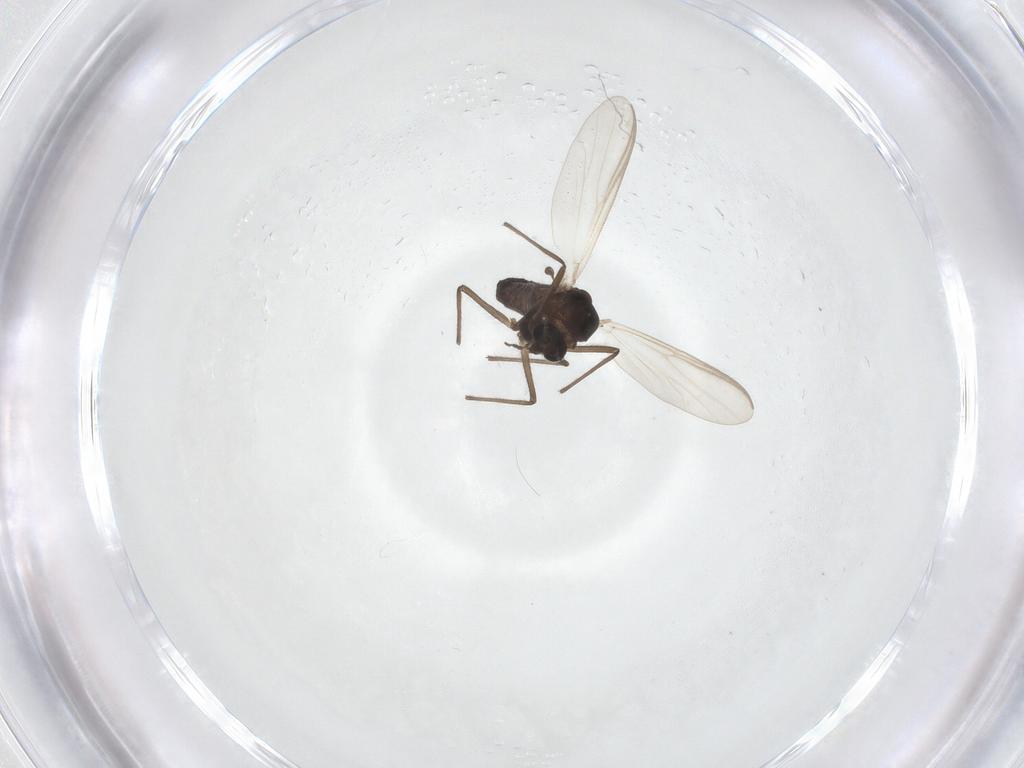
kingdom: Animalia
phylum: Arthropoda
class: Insecta
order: Diptera
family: Chironomidae
